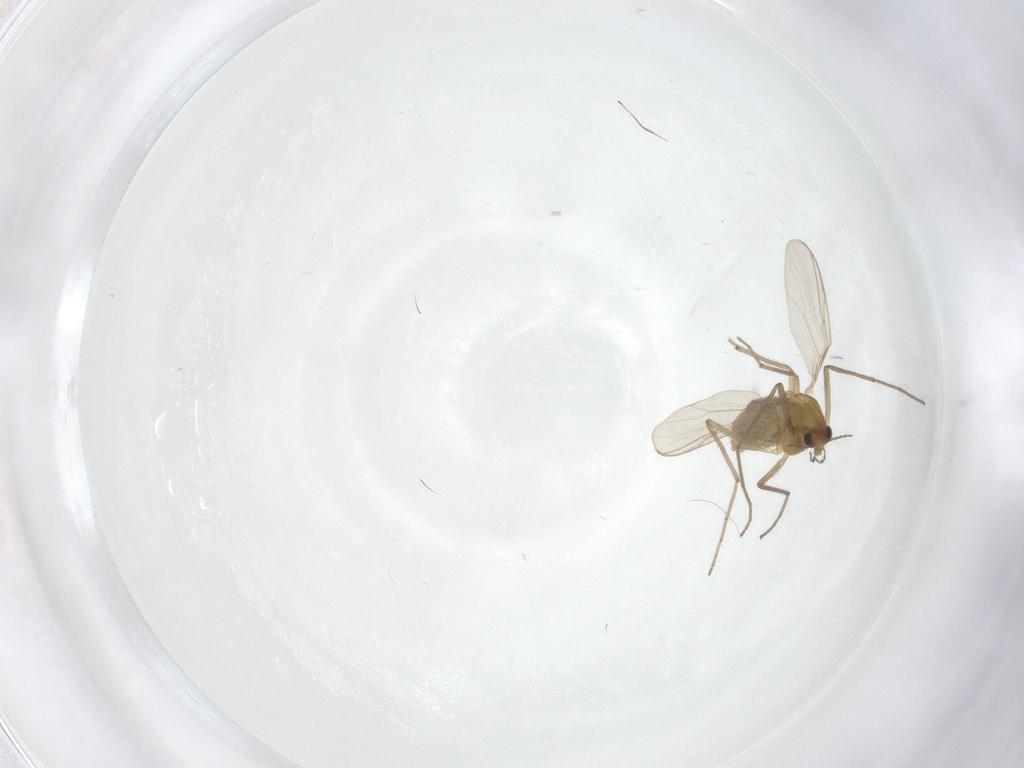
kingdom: Animalia
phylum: Arthropoda
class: Insecta
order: Diptera
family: Chironomidae
